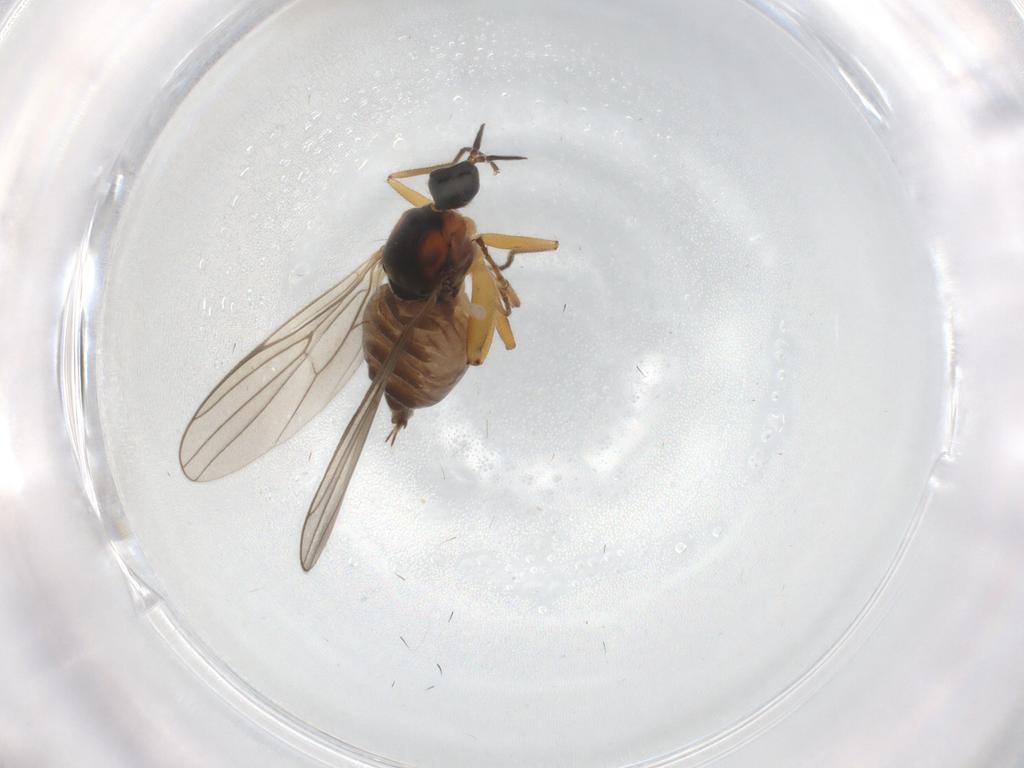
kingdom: Animalia
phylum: Arthropoda
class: Insecta
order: Diptera
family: Hybotidae
